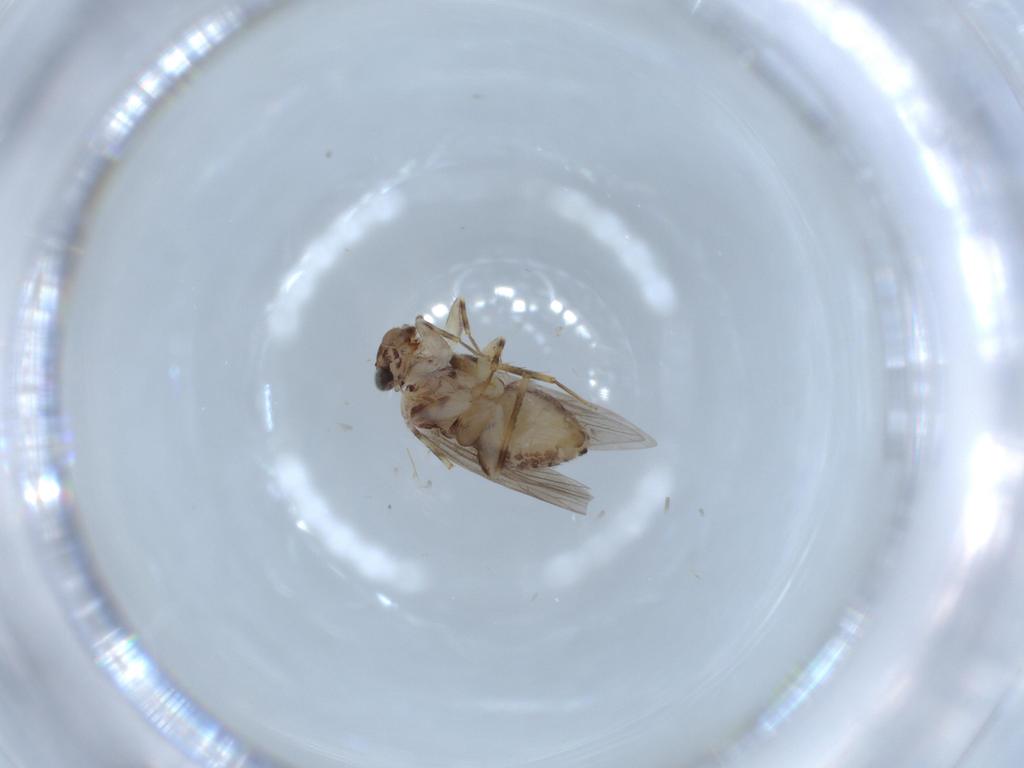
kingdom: Animalia
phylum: Arthropoda
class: Insecta
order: Psocodea
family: Lepidopsocidae
